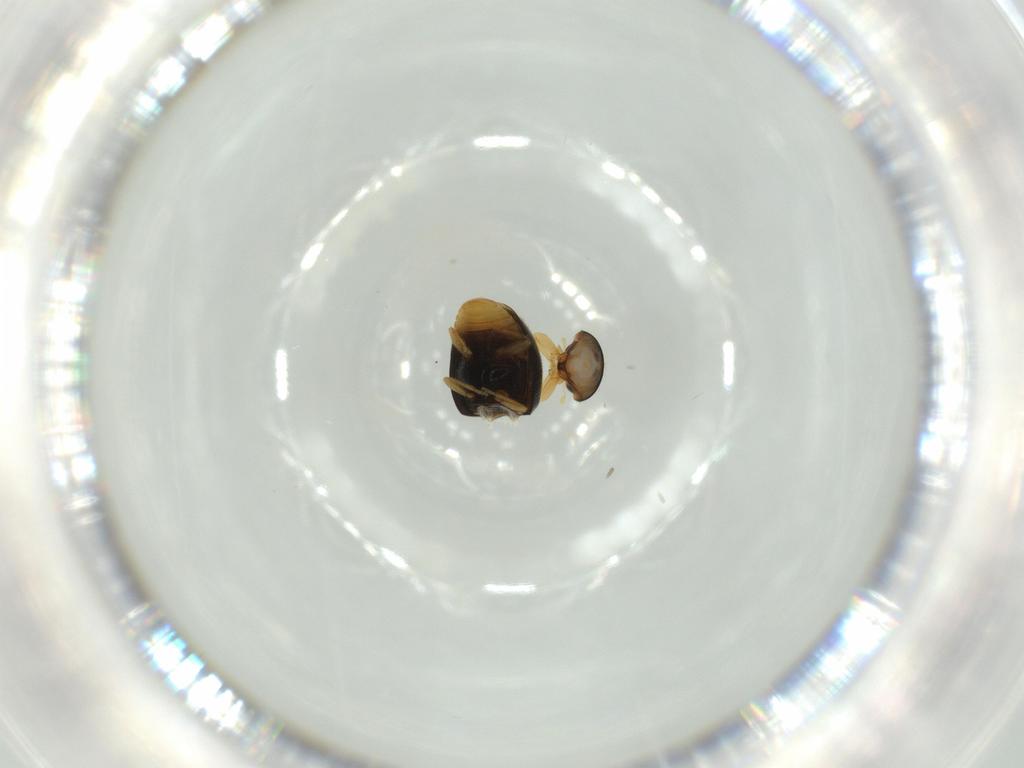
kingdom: Animalia
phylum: Arthropoda
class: Insecta
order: Coleoptera
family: Chrysomelidae
